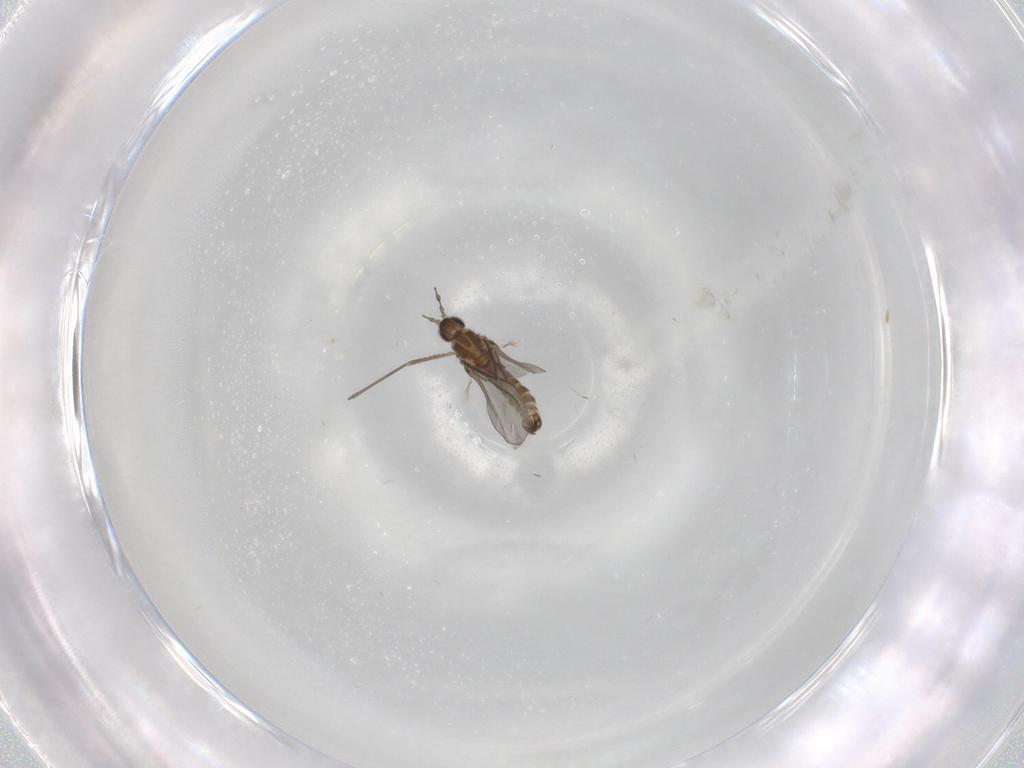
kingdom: Animalia
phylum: Arthropoda
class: Insecta
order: Diptera
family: Cecidomyiidae
